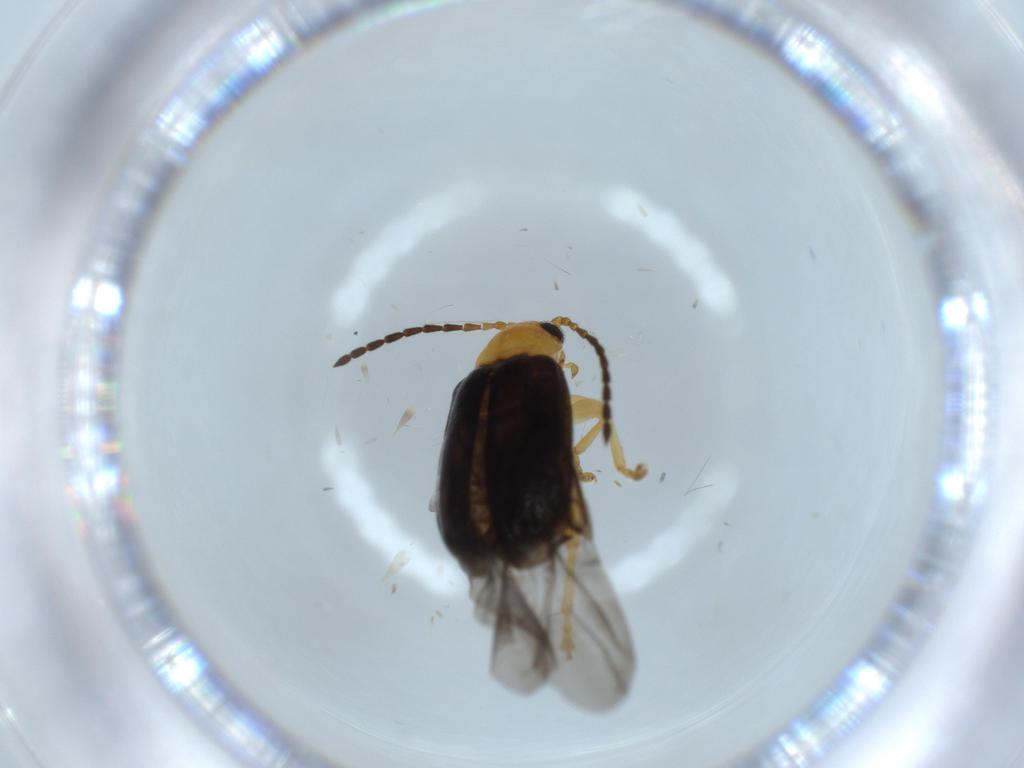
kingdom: Animalia
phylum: Arthropoda
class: Insecta
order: Coleoptera
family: Chrysomelidae
